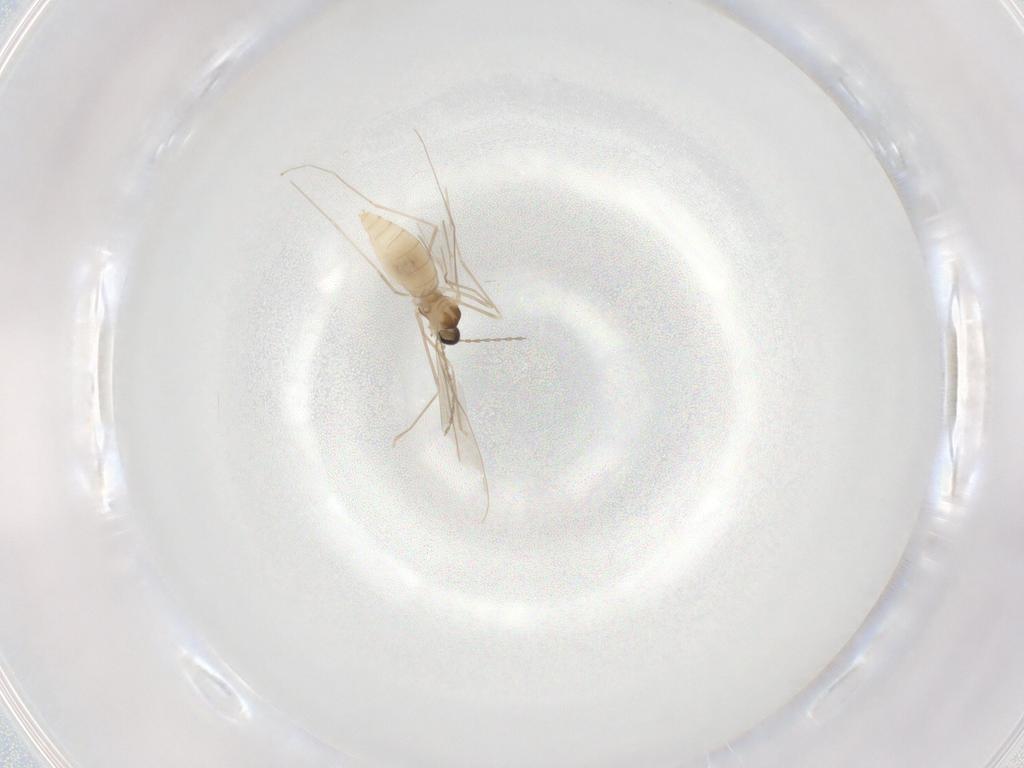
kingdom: Animalia
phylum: Arthropoda
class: Insecta
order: Diptera
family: Cecidomyiidae
